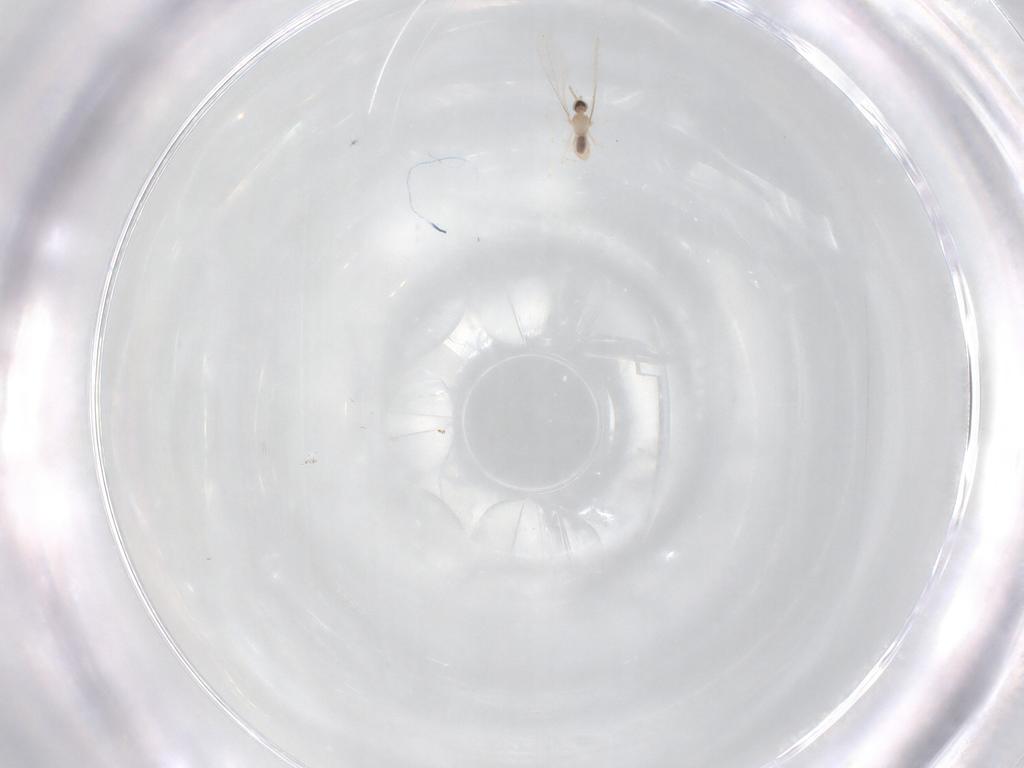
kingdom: Animalia
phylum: Arthropoda
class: Insecta
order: Diptera
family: Cecidomyiidae
